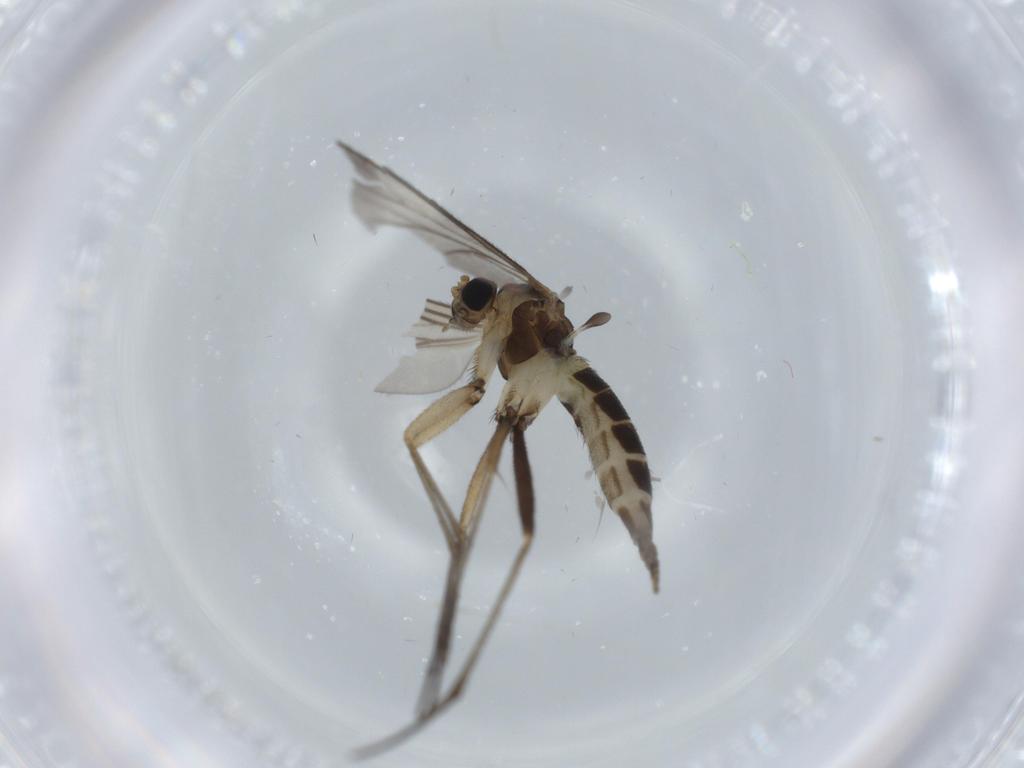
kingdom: Animalia
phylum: Arthropoda
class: Insecta
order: Diptera
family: Sciaridae
